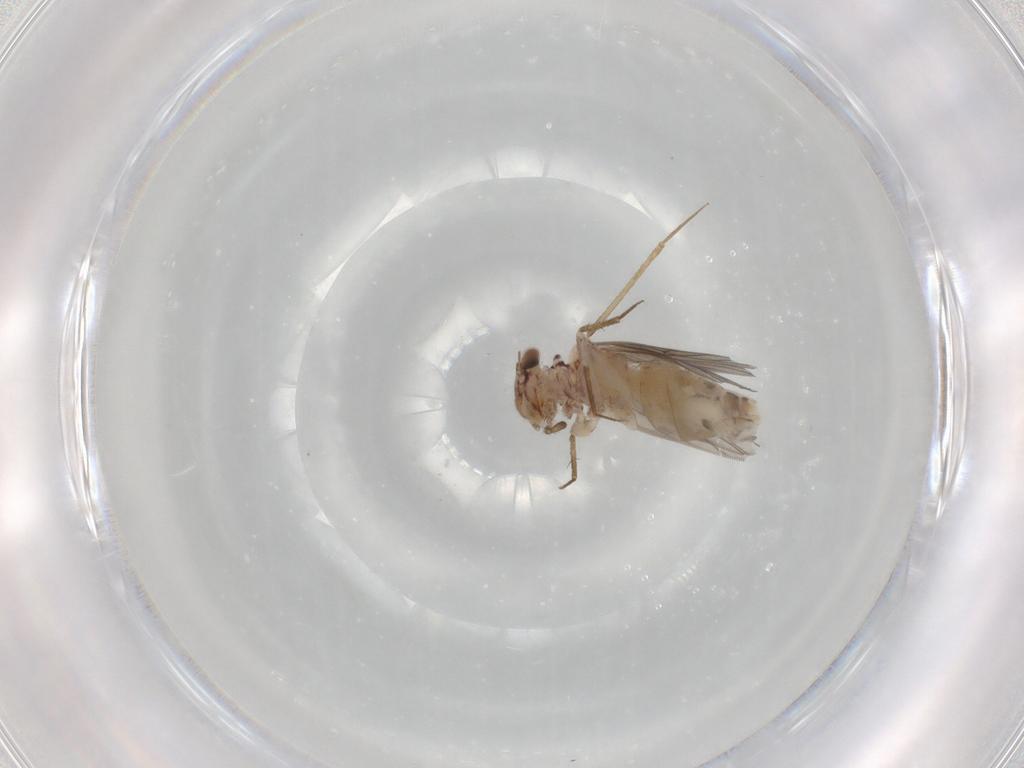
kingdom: Animalia
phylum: Arthropoda
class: Insecta
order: Psocodea
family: Lepidopsocidae
